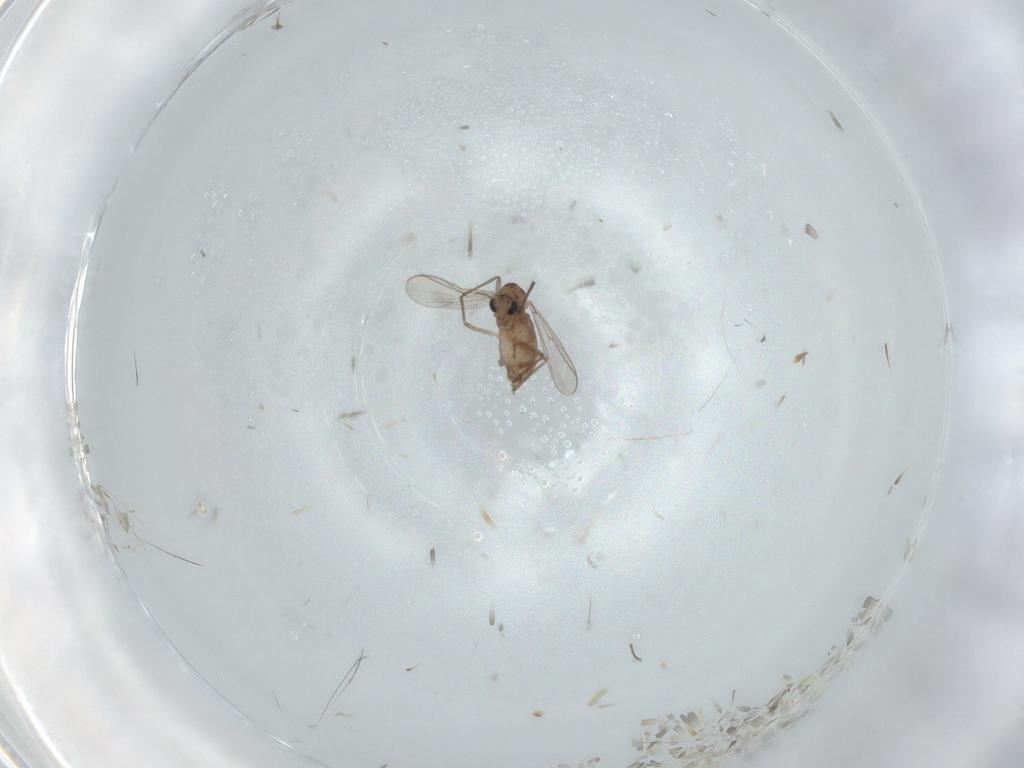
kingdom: Animalia
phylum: Arthropoda
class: Insecta
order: Diptera
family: Chironomidae
